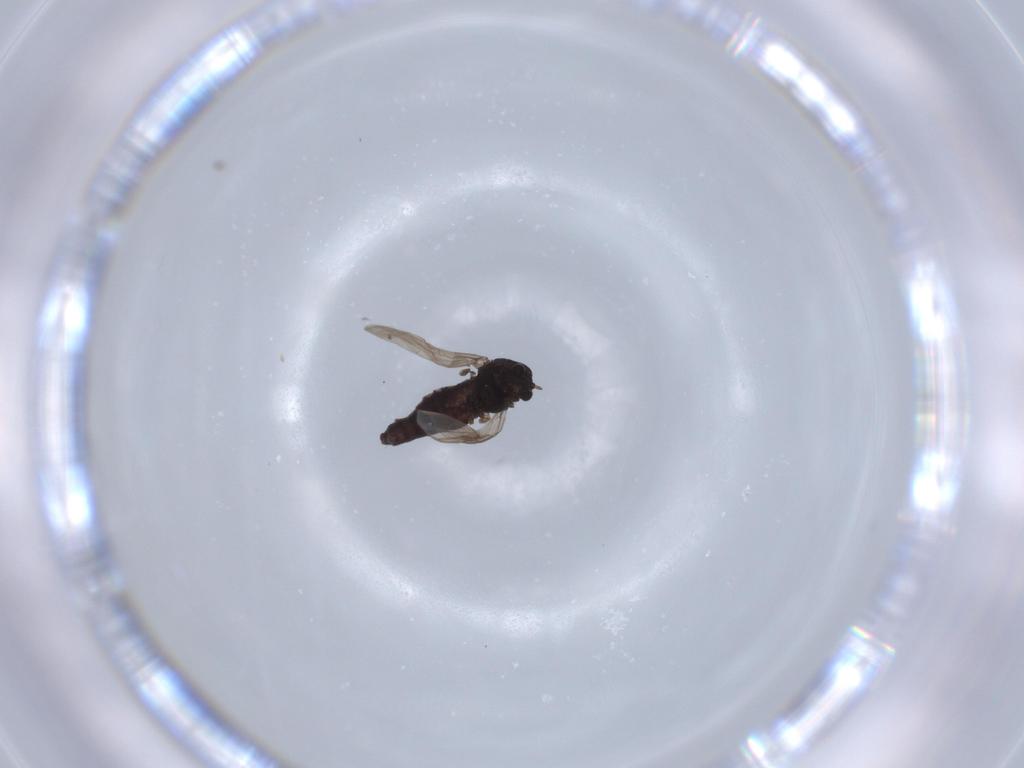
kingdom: Animalia
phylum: Arthropoda
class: Insecta
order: Diptera
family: Chironomidae
